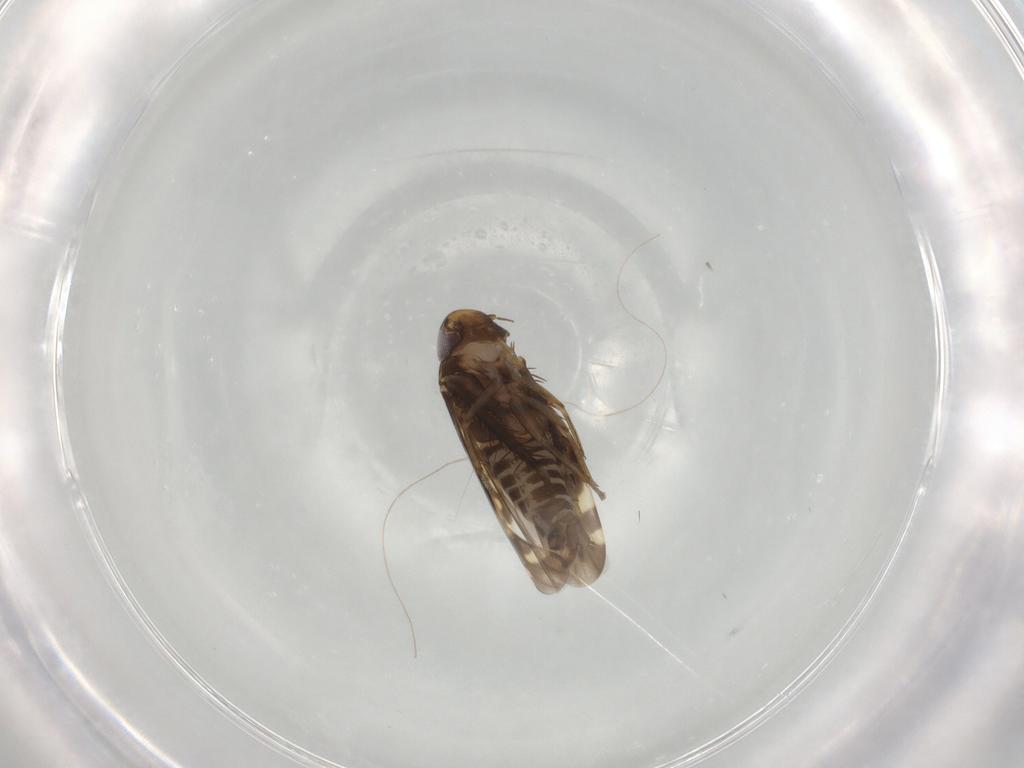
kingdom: Animalia
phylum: Arthropoda
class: Insecta
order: Hemiptera
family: Cicadellidae
